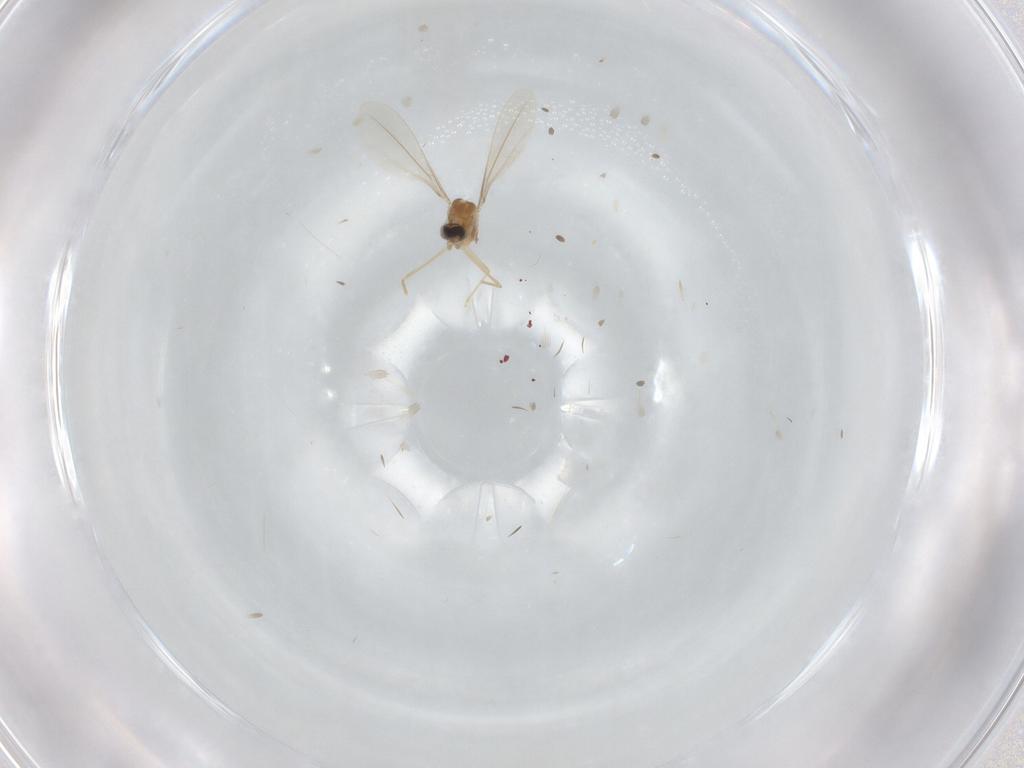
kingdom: Animalia
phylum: Arthropoda
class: Insecta
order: Diptera
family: Cecidomyiidae
